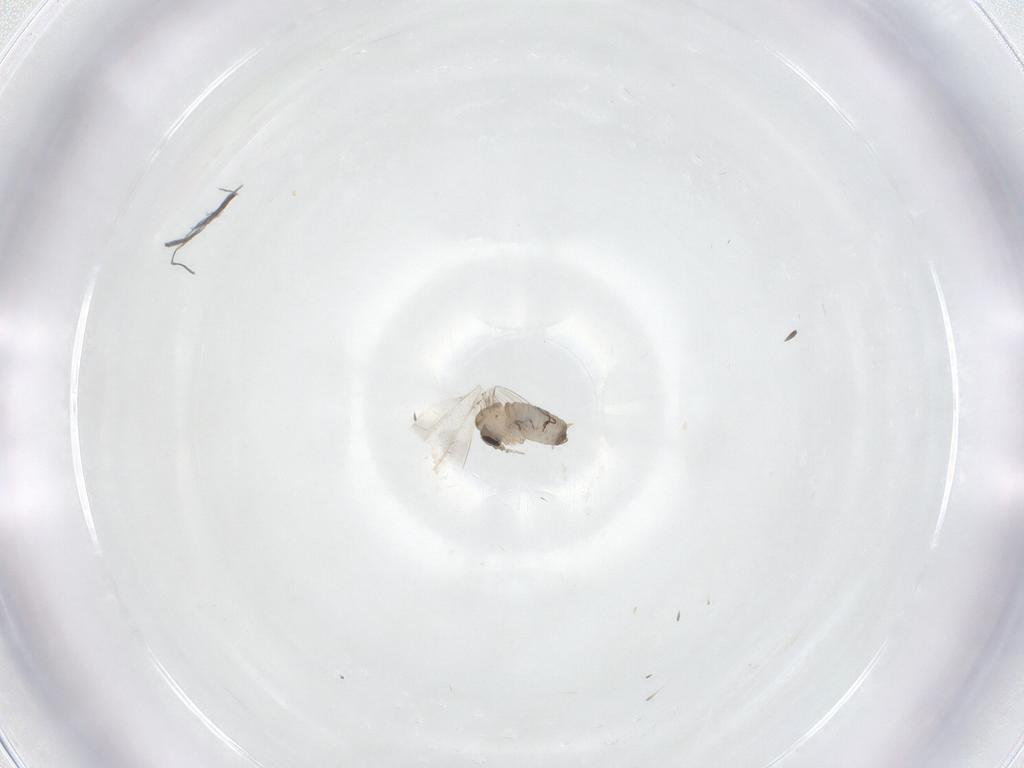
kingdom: Animalia
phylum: Arthropoda
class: Insecta
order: Diptera
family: Psychodidae
